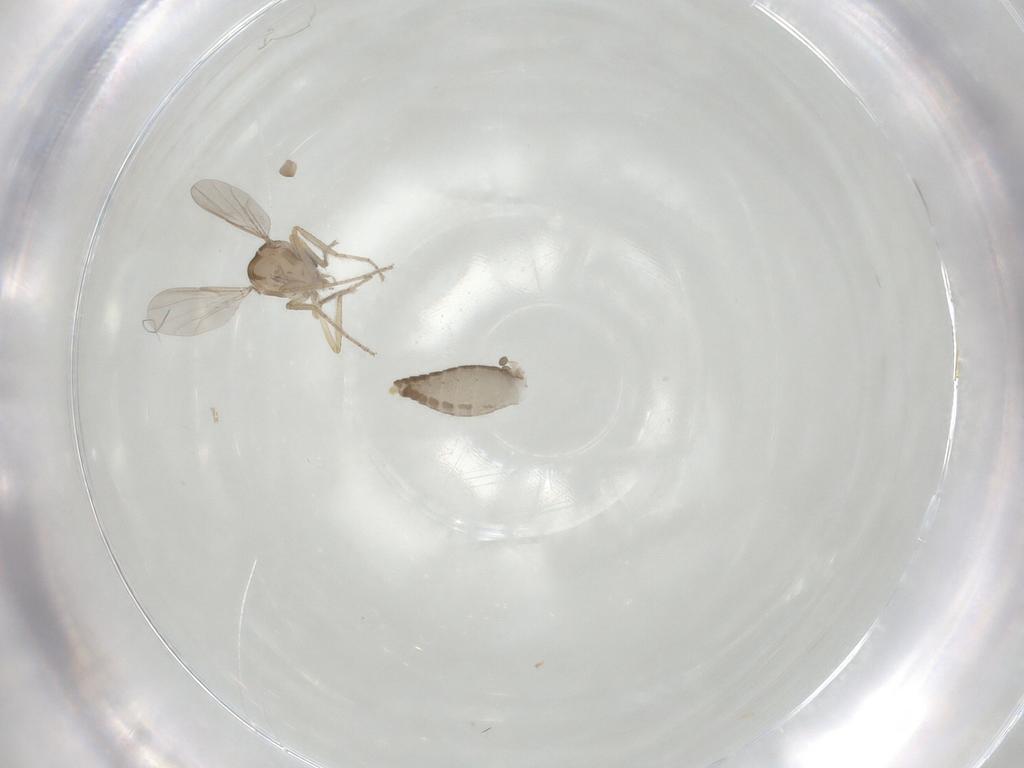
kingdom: Animalia
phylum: Arthropoda
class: Insecta
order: Diptera
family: Ceratopogonidae
